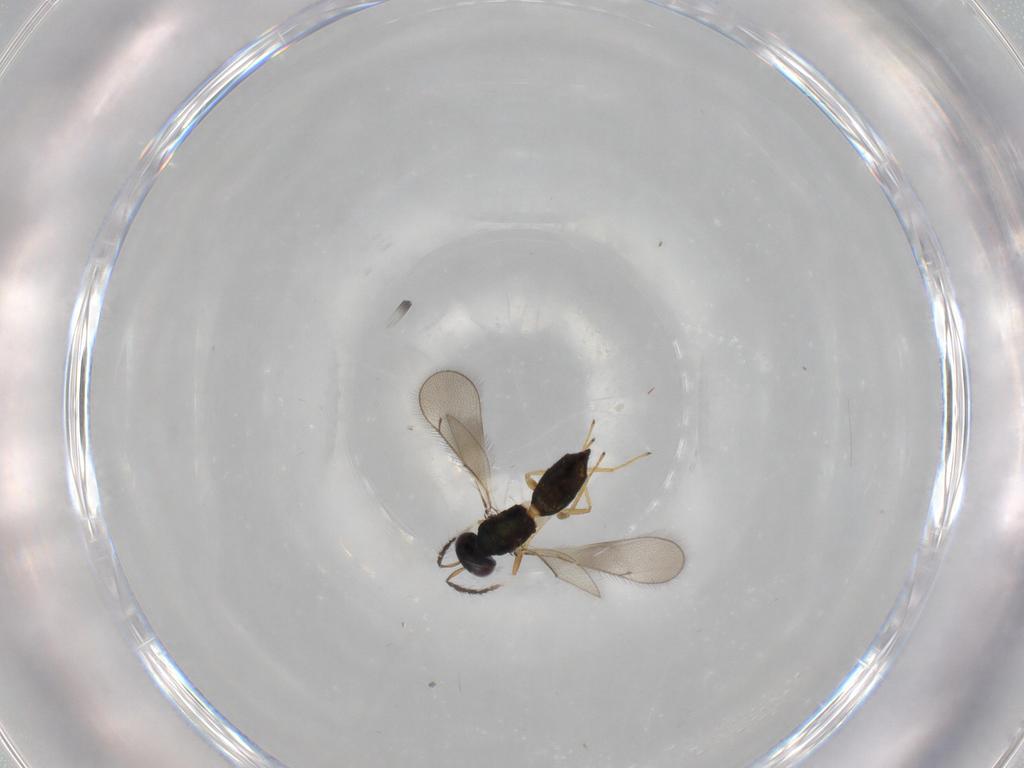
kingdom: Animalia
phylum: Arthropoda
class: Insecta
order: Hymenoptera
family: Eulophidae
